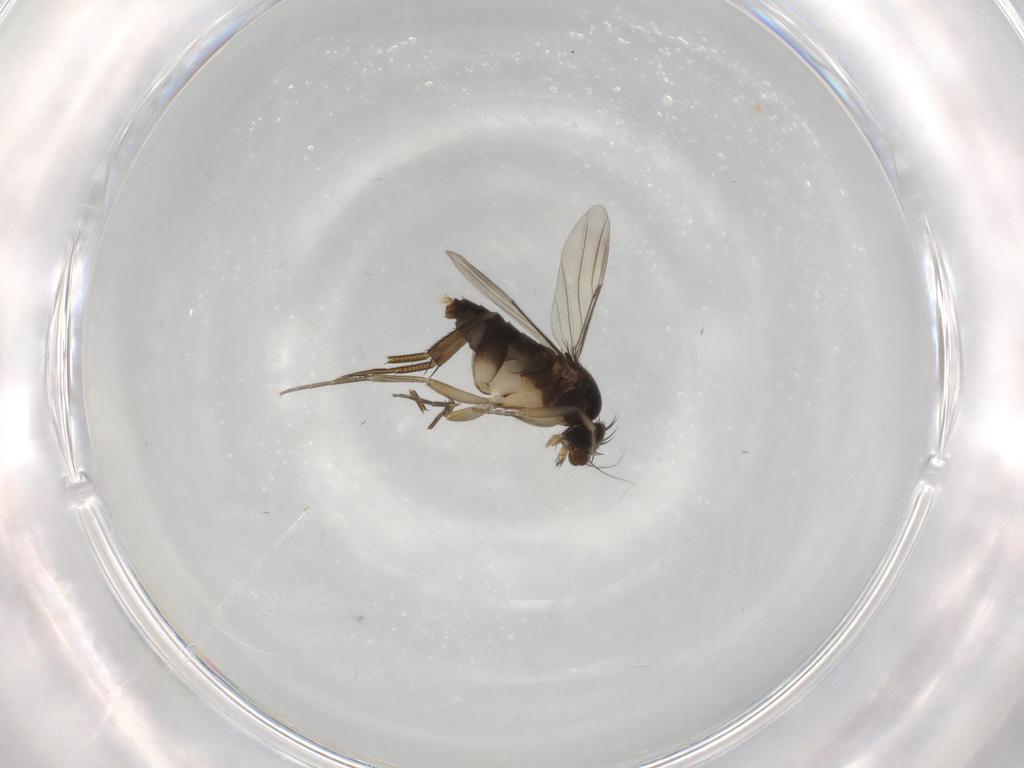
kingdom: Animalia
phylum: Arthropoda
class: Insecta
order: Diptera
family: Phoridae
